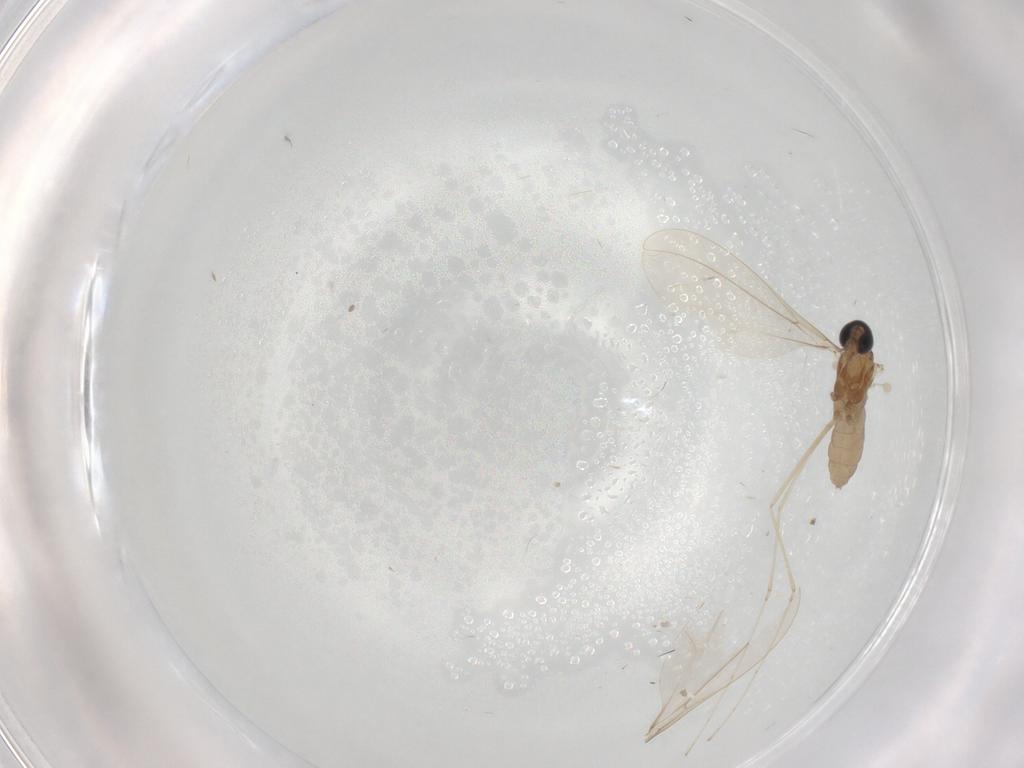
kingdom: Animalia
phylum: Arthropoda
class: Insecta
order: Diptera
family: Cecidomyiidae
